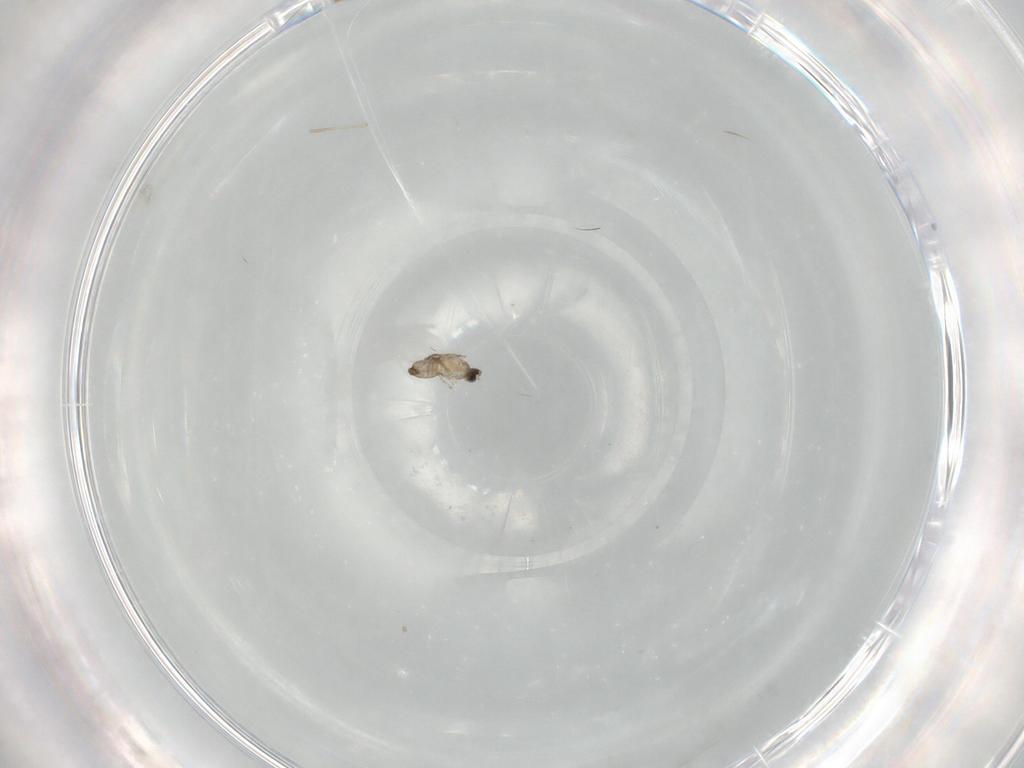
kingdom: Animalia
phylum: Arthropoda
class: Insecta
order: Diptera
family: Cecidomyiidae
